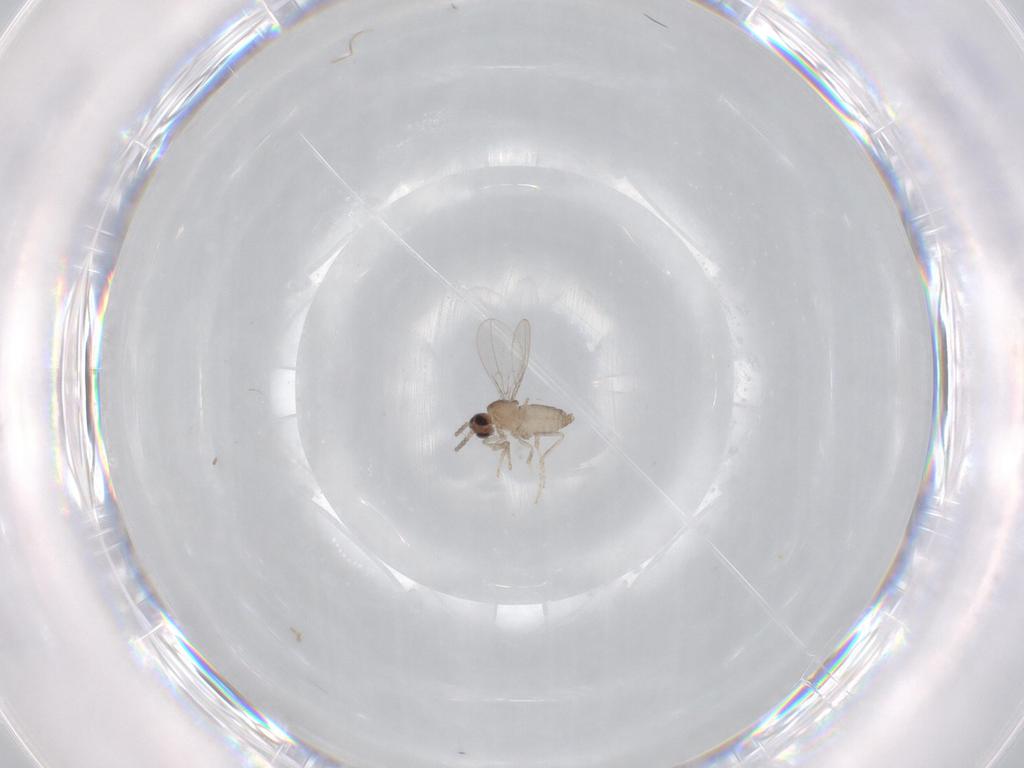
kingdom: Animalia
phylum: Arthropoda
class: Insecta
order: Diptera
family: Cecidomyiidae
